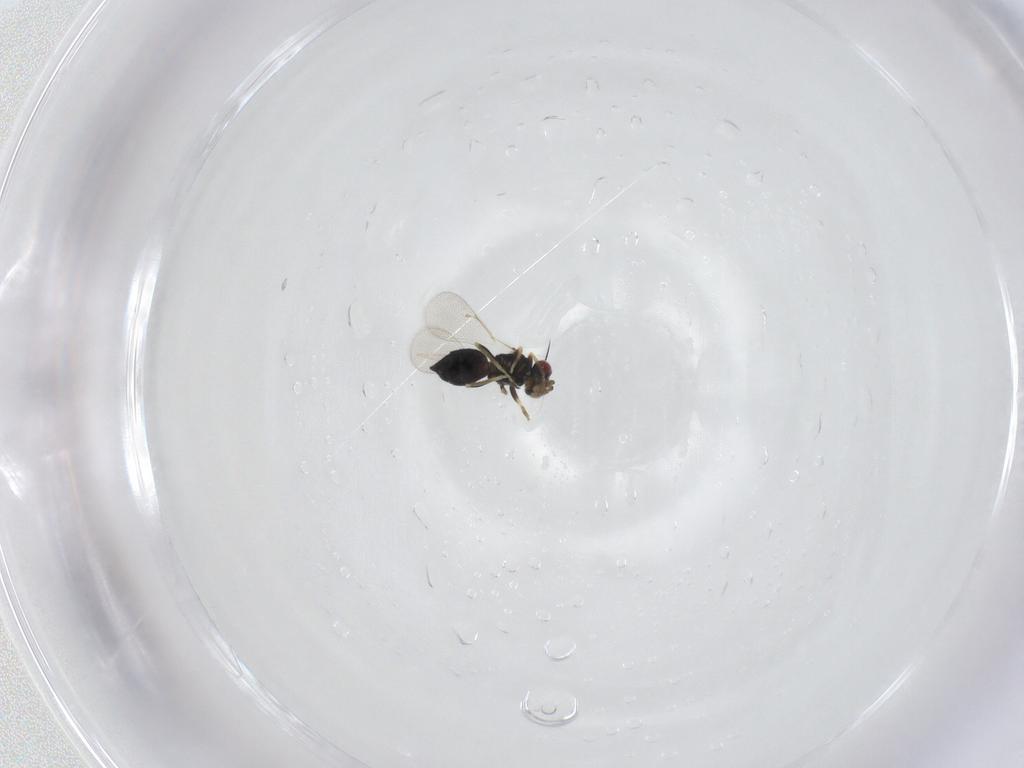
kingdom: Animalia
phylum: Arthropoda
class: Insecta
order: Hymenoptera
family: Eulophidae
